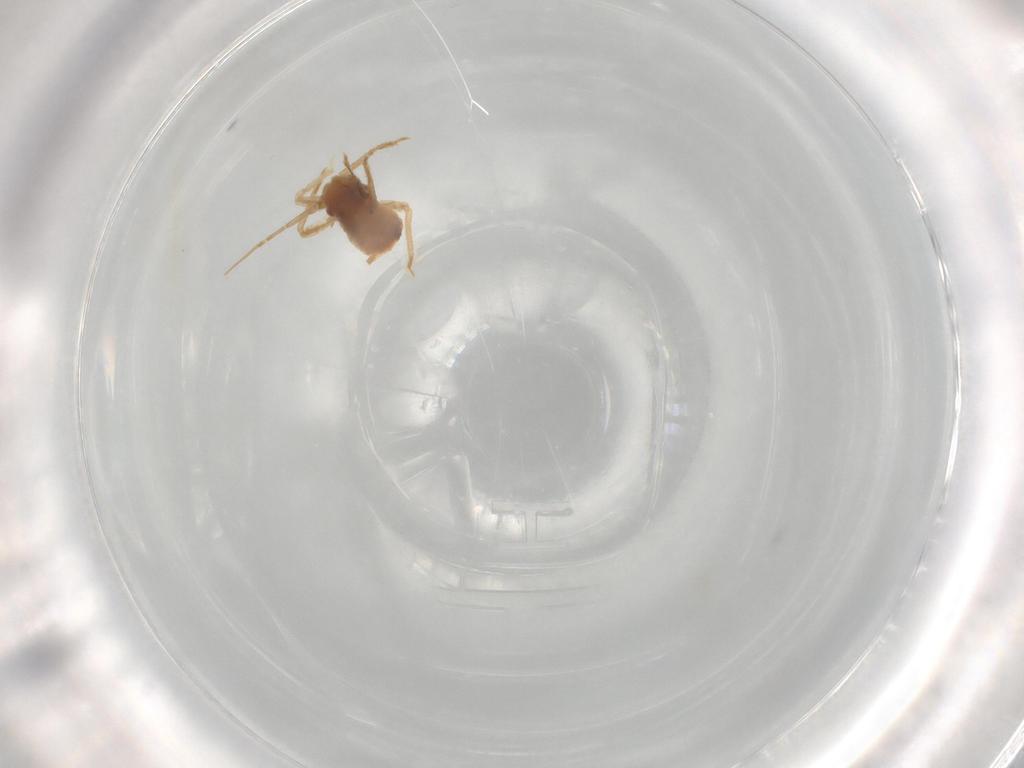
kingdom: Animalia
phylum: Arthropoda
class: Insecta
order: Hemiptera
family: Aphididae
